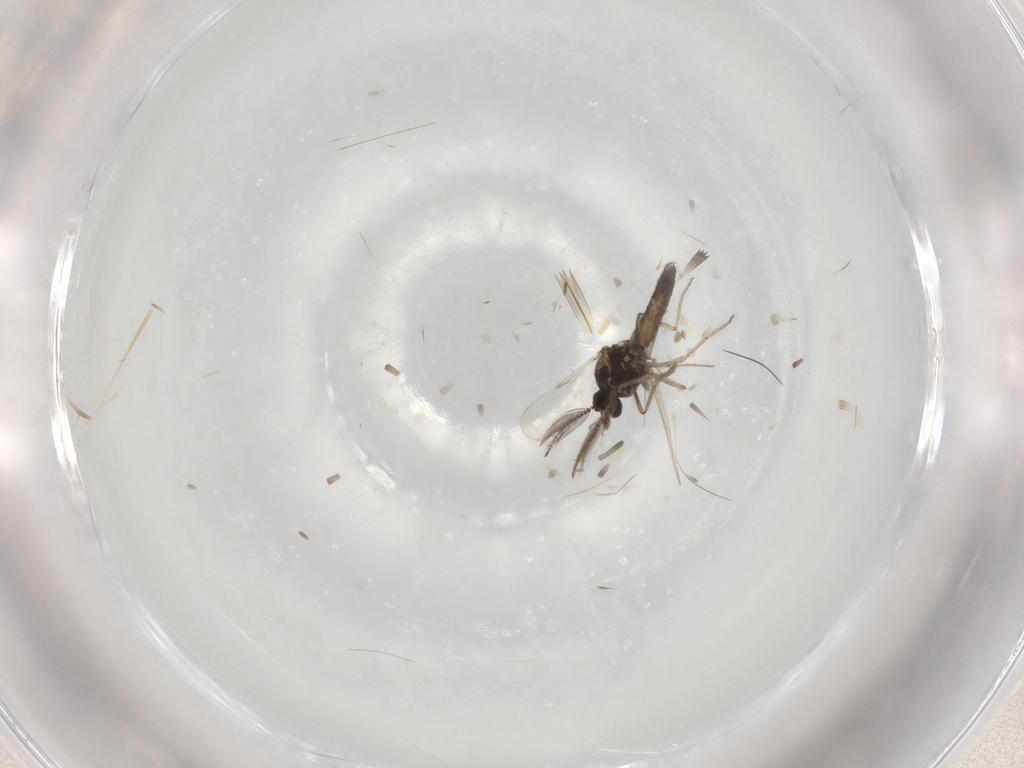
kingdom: Animalia
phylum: Arthropoda
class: Insecta
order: Diptera
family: Ceratopogonidae
